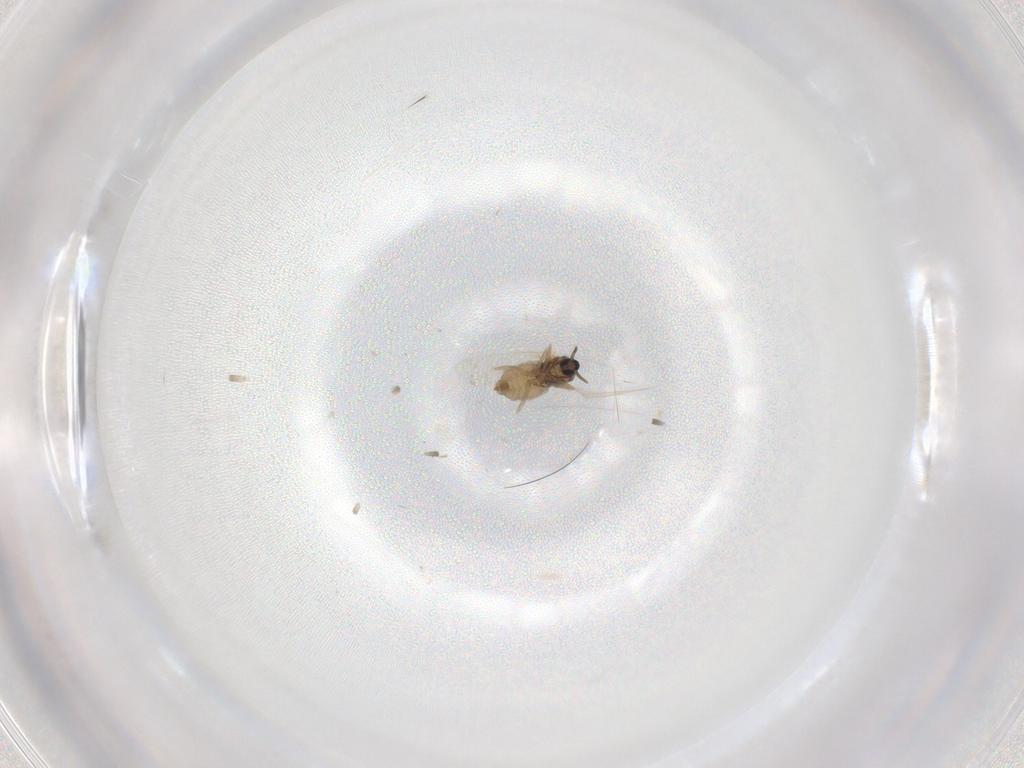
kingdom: Animalia
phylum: Arthropoda
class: Insecta
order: Diptera
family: Cecidomyiidae
